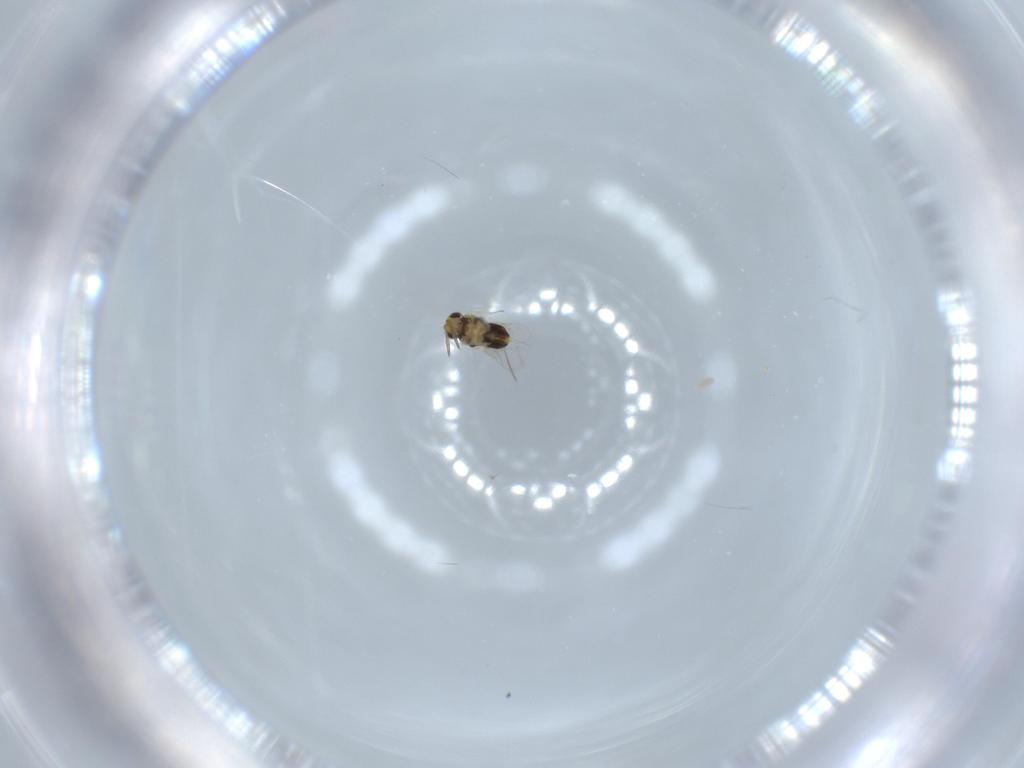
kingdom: Animalia
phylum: Arthropoda
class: Insecta
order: Hymenoptera
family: Aphelinidae
